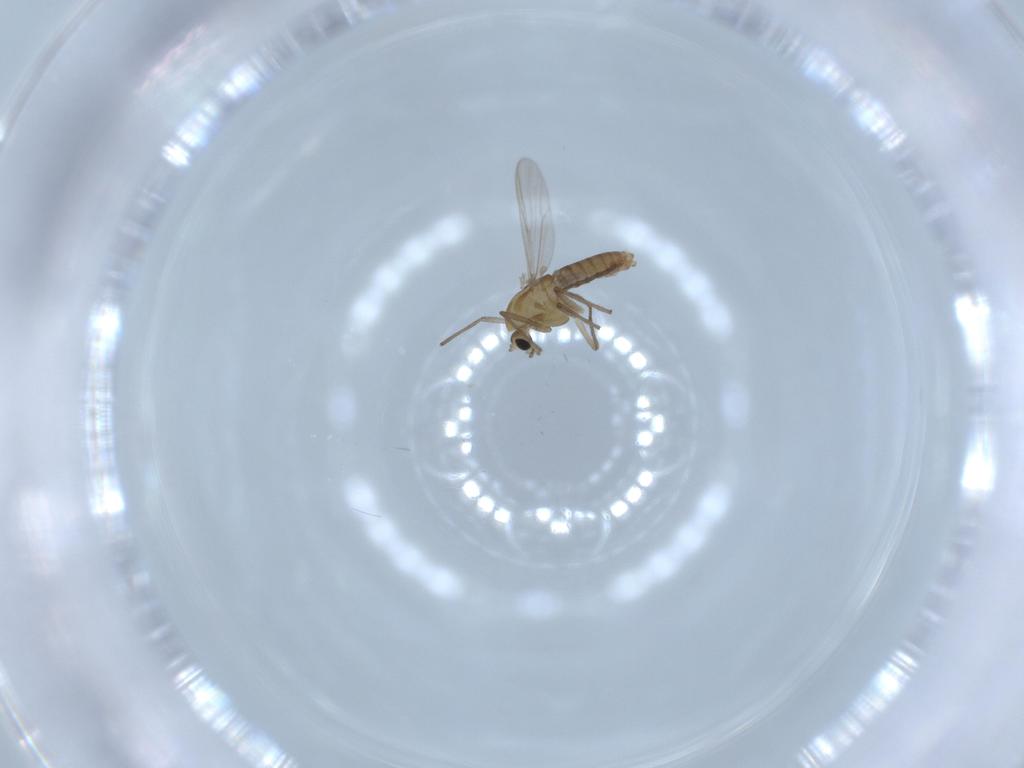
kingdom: Animalia
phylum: Arthropoda
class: Insecta
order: Diptera
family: Chironomidae
